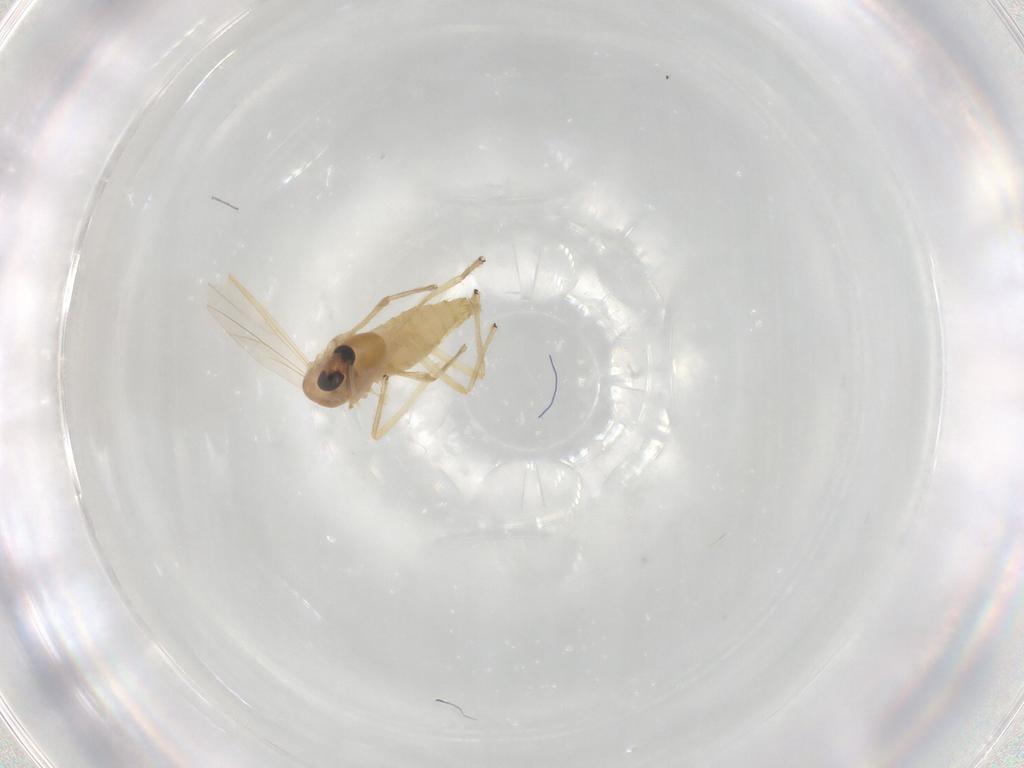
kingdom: Animalia
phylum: Arthropoda
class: Insecta
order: Diptera
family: Chironomidae
